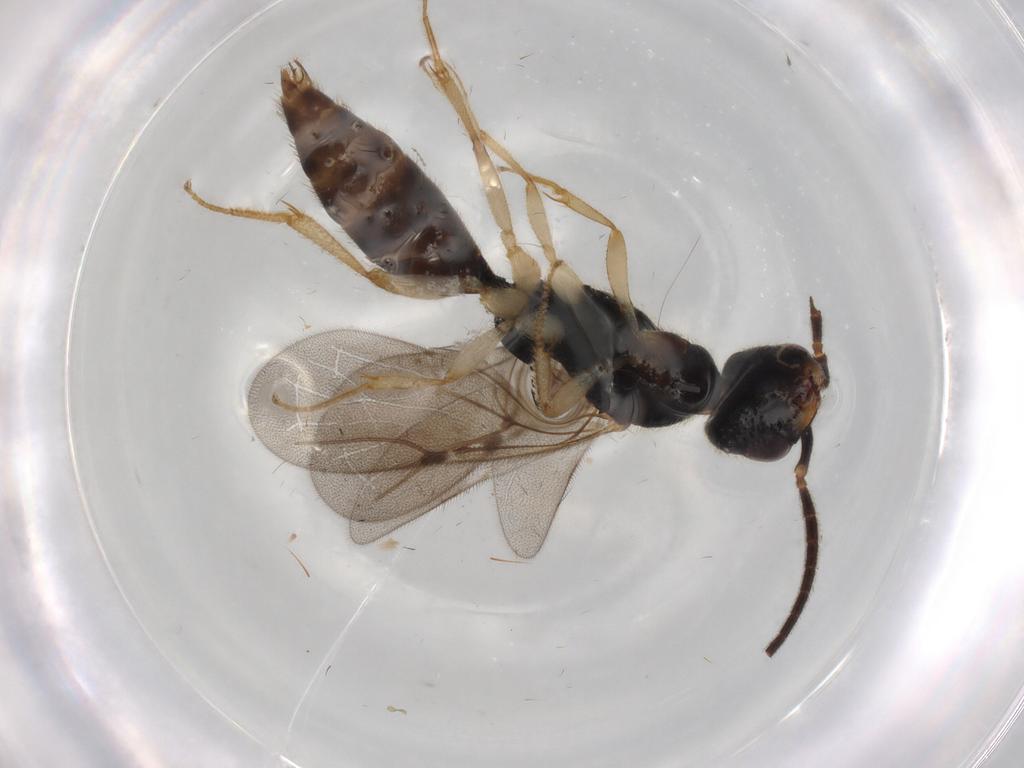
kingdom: Animalia
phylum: Arthropoda
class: Insecta
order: Hymenoptera
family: Bethylidae
